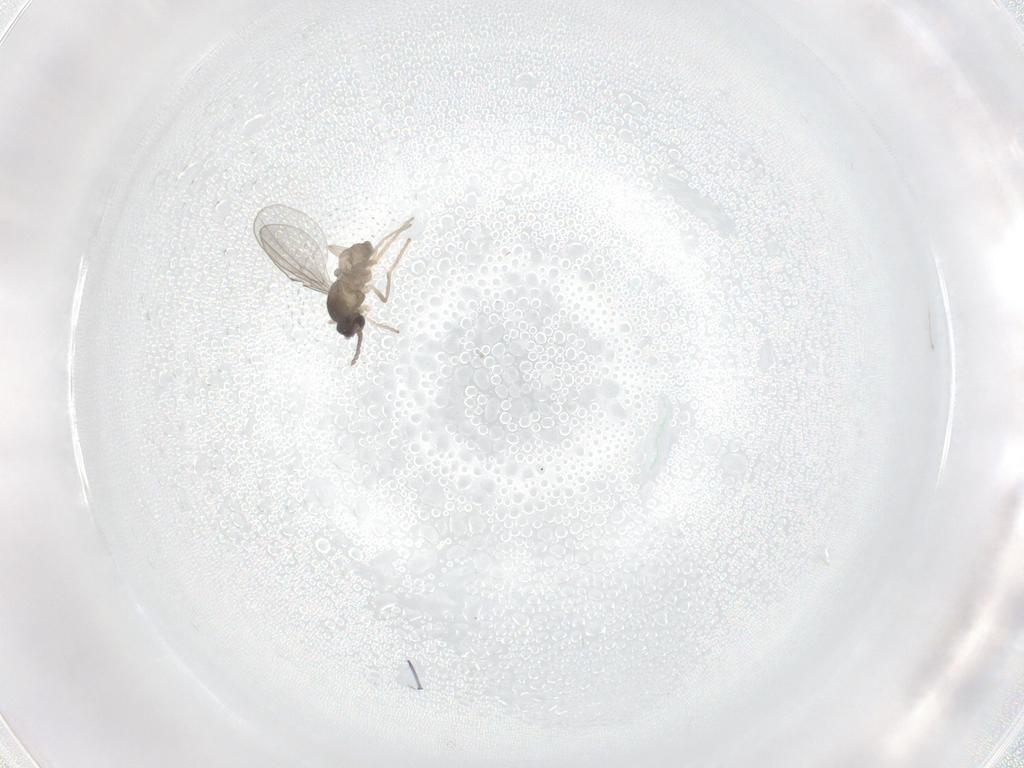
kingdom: Animalia
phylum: Arthropoda
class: Insecta
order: Diptera
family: Cecidomyiidae
